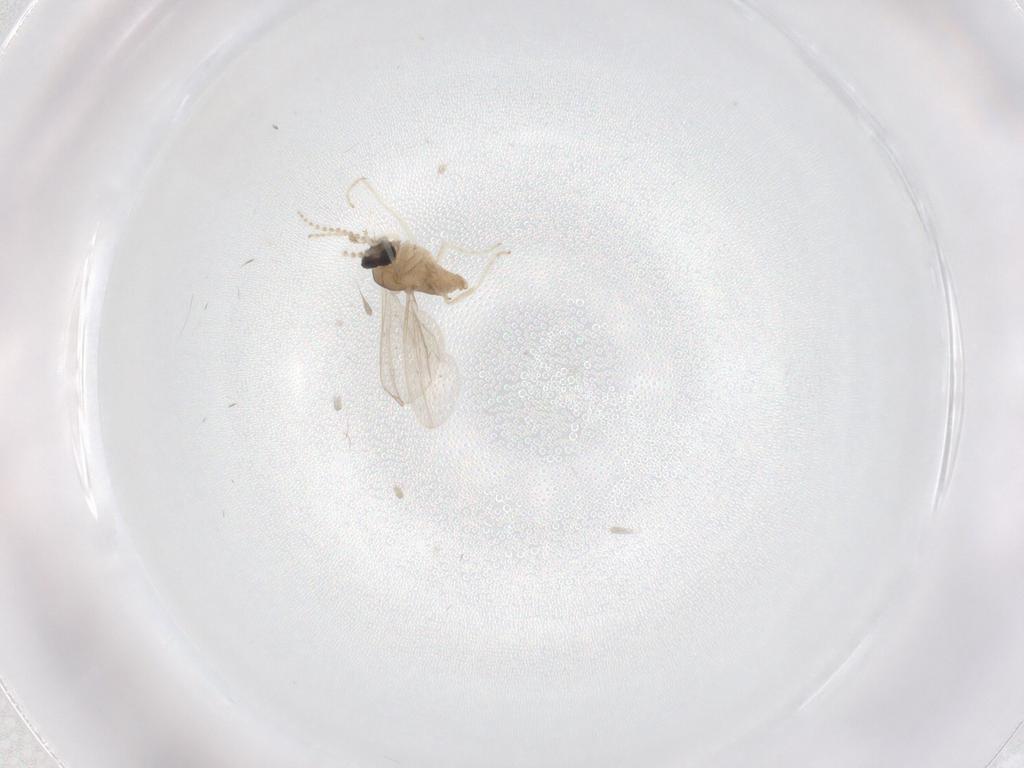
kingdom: Animalia
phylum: Arthropoda
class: Insecta
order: Diptera
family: Cecidomyiidae
